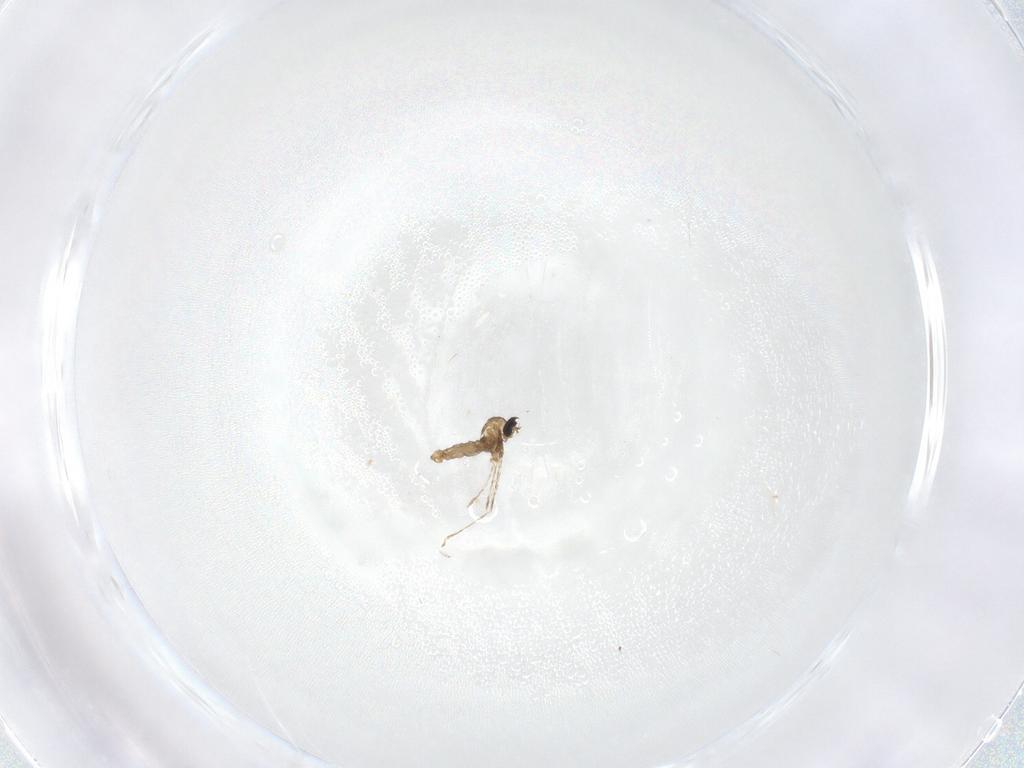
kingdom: Animalia
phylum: Arthropoda
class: Insecta
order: Diptera
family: Cecidomyiidae
